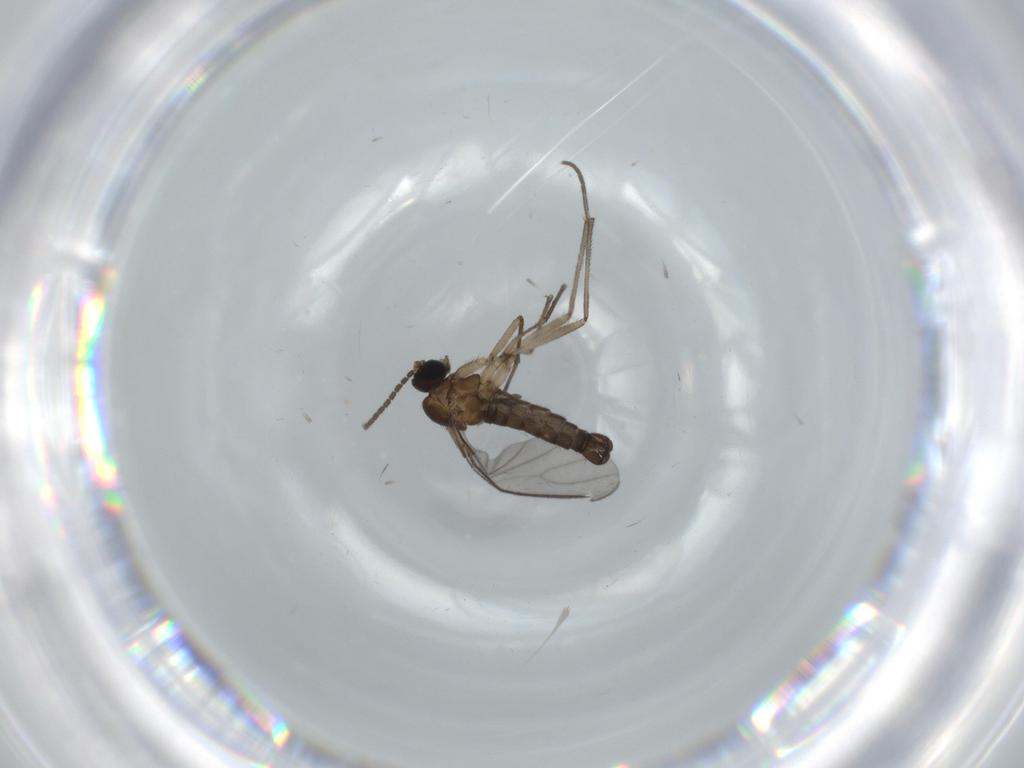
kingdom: Animalia
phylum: Arthropoda
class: Insecta
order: Diptera
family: Sciaridae
